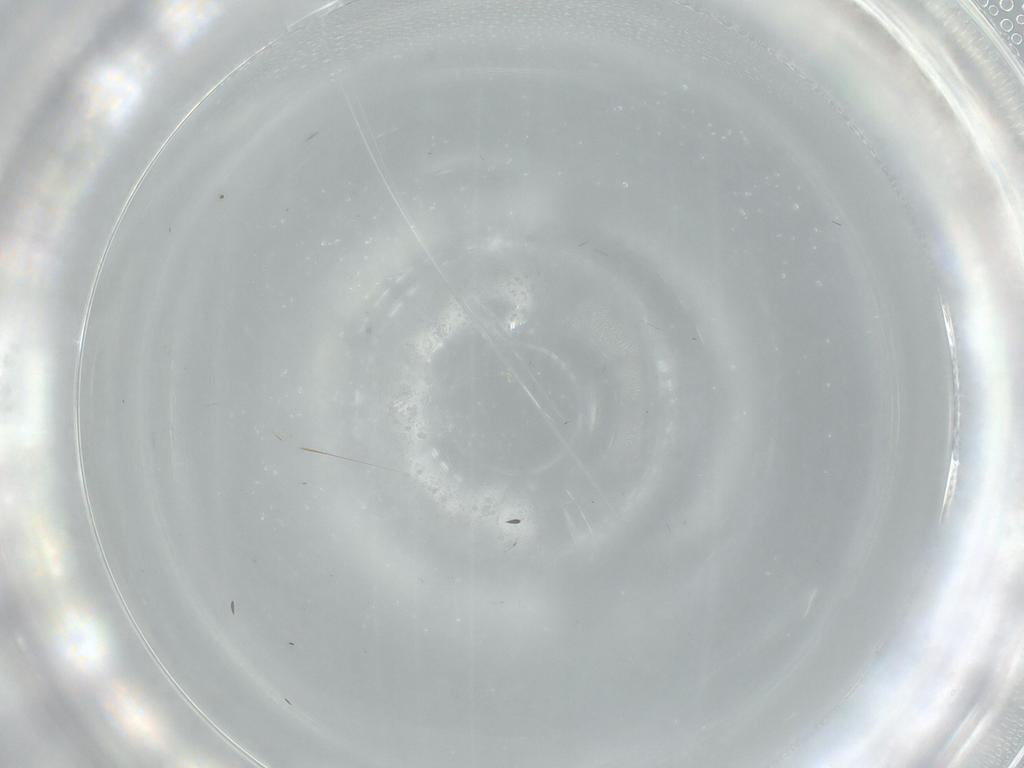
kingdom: Animalia
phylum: Arthropoda
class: Insecta
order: Diptera
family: Phoridae
